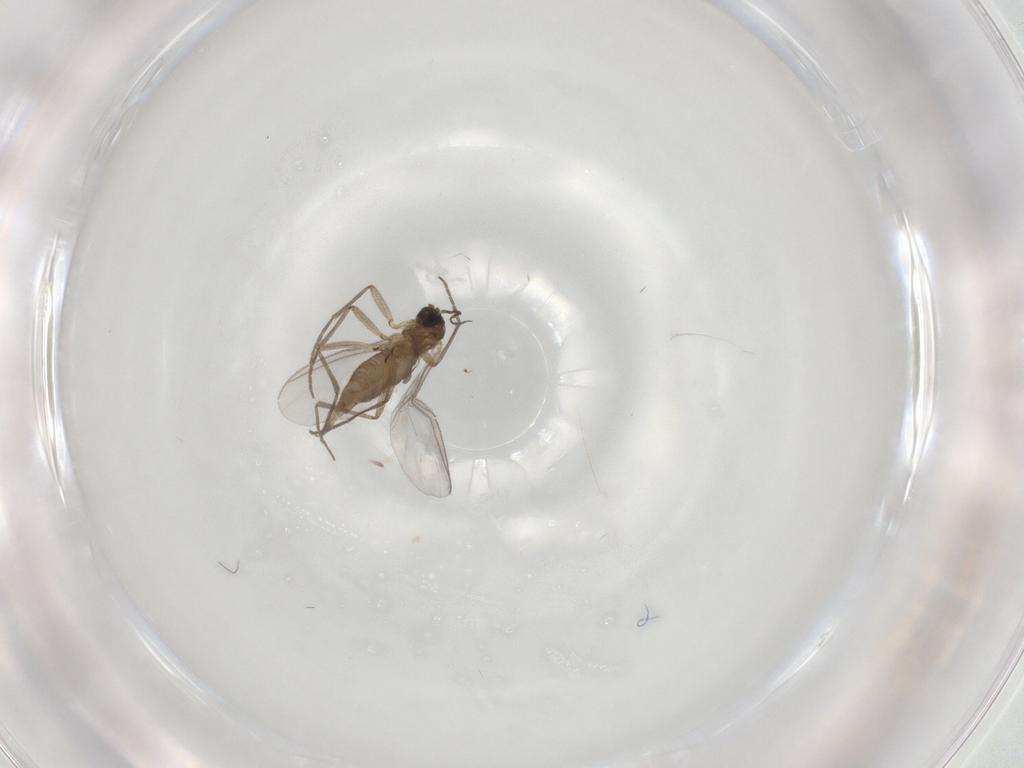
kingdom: Animalia
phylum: Arthropoda
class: Insecta
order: Diptera
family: Sciaridae
